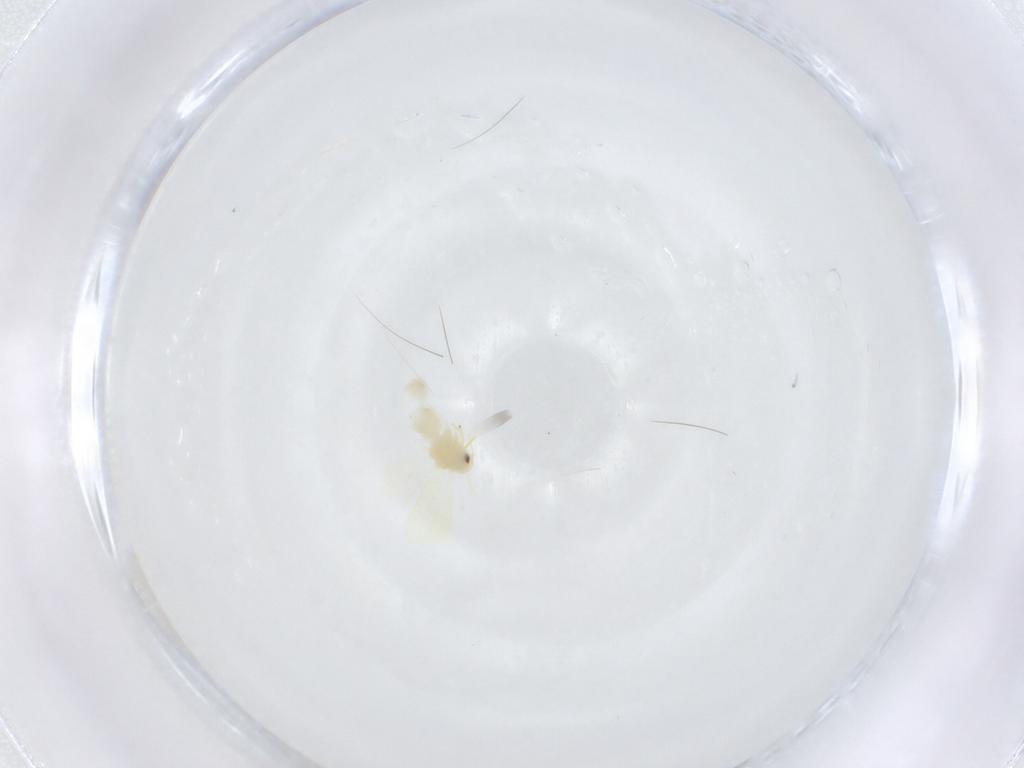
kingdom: Animalia
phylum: Arthropoda
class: Insecta
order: Hemiptera
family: Aleyrodidae
